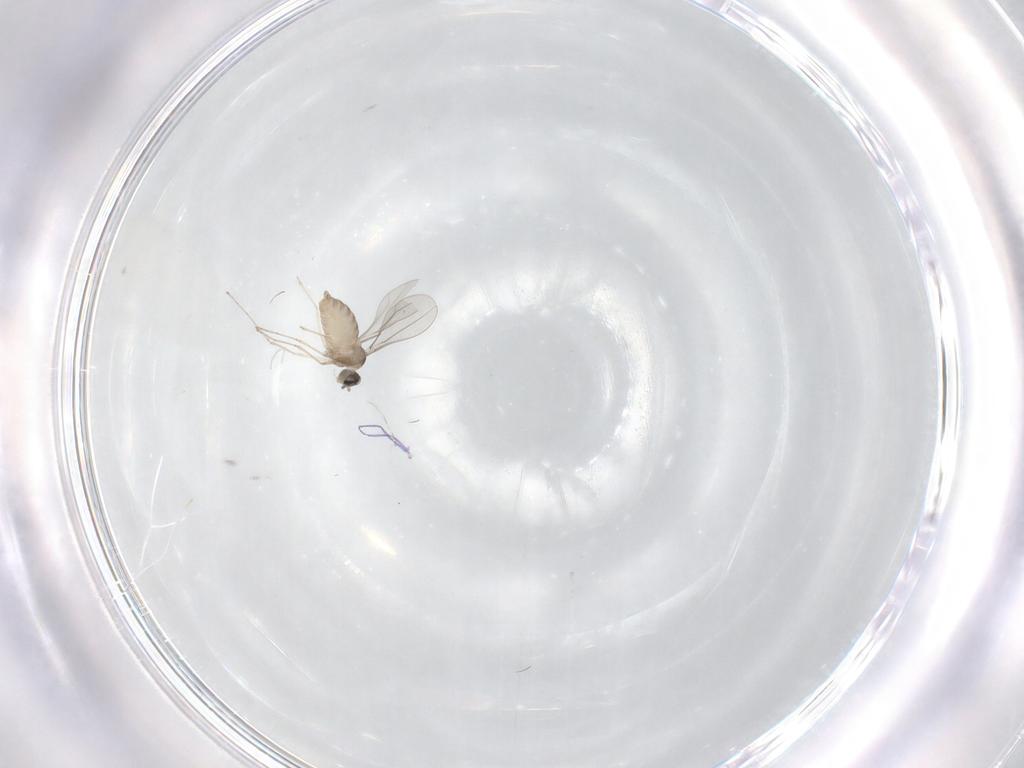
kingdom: Animalia
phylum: Arthropoda
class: Insecta
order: Diptera
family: Cecidomyiidae
